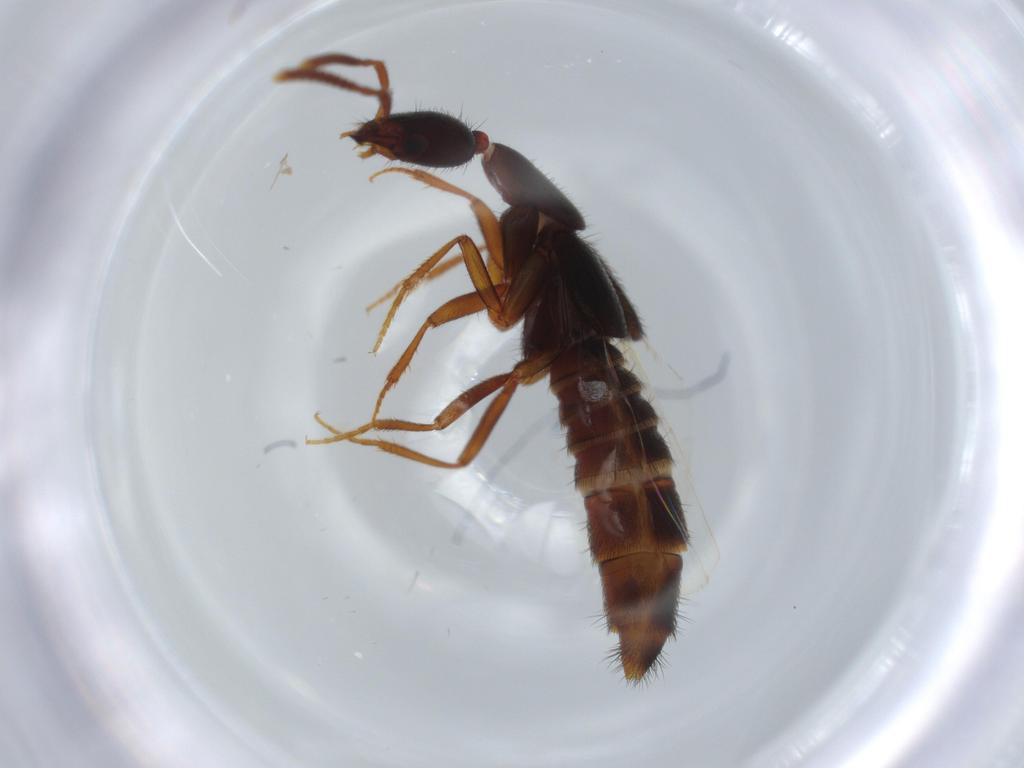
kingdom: Animalia
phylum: Arthropoda
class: Insecta
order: Coleoptera
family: Staphylinidae
